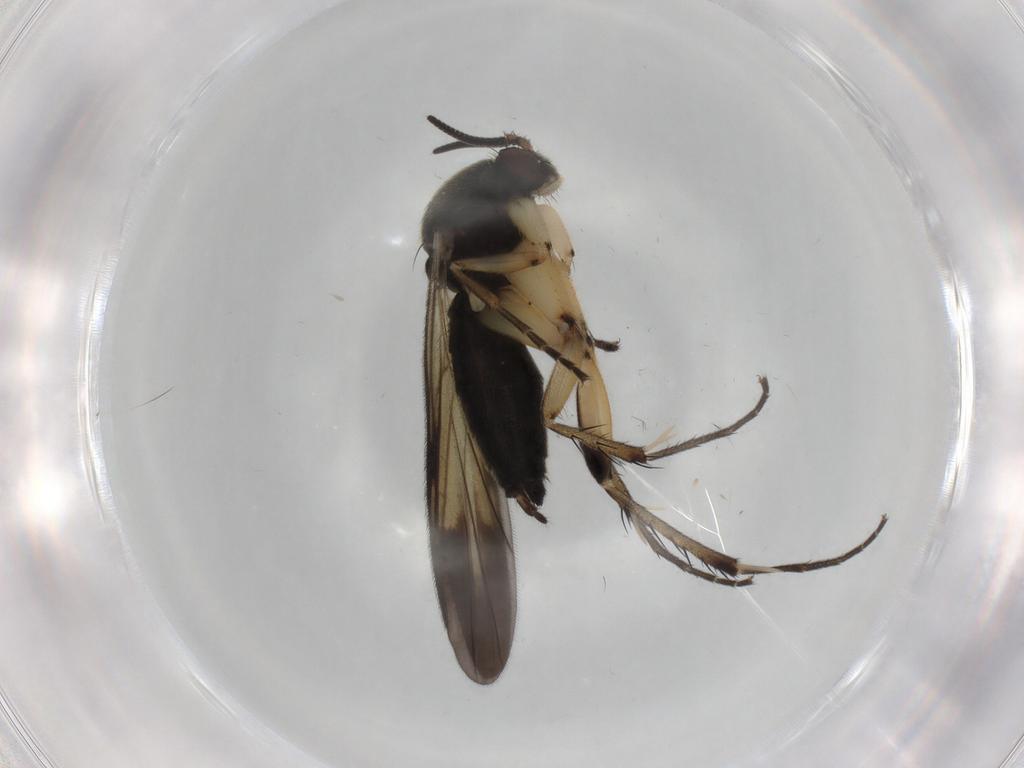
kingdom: Animalia
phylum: Arthropoda
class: Insecta
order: Diptera
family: Mycetophilidae
